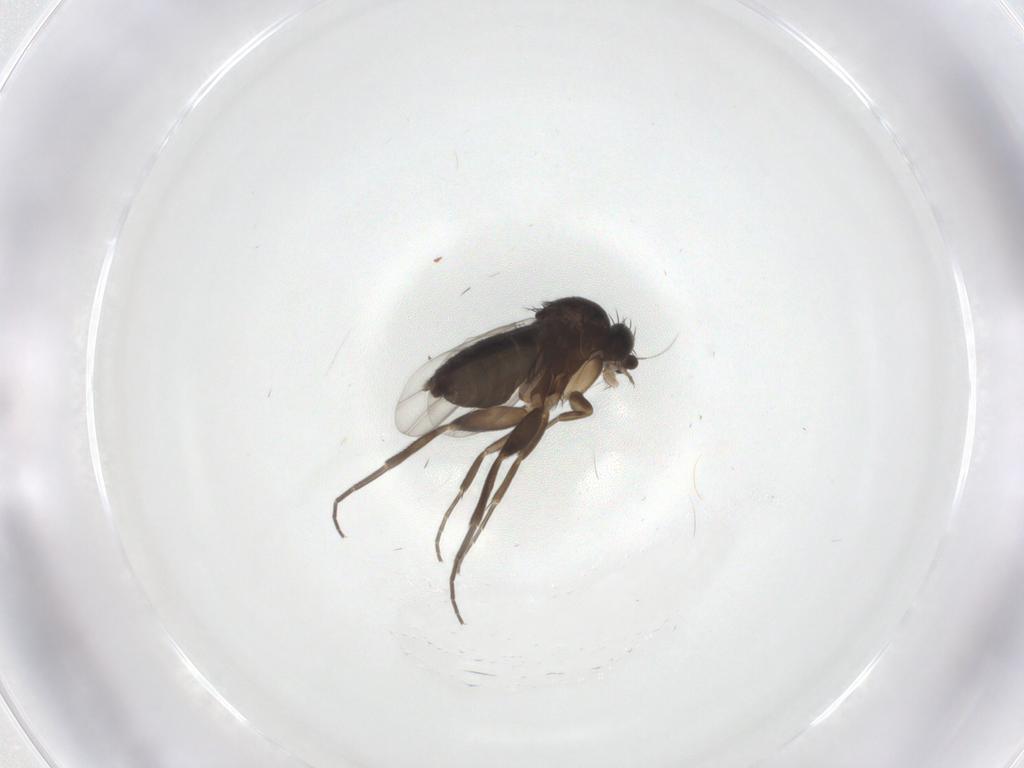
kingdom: Animalia
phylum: Arthropoda
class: Insecta
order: Diptera
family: Phoridae
